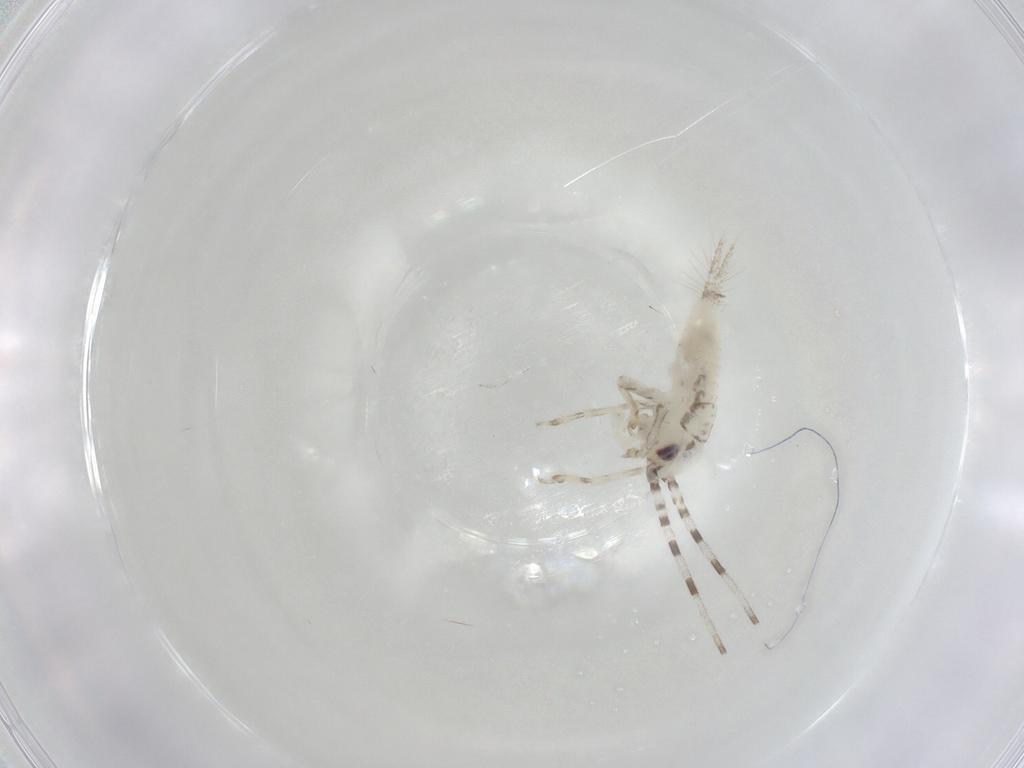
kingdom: Animalia
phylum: Arthropoda
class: Insecta
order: Orthoptera
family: Trigonidiidae
